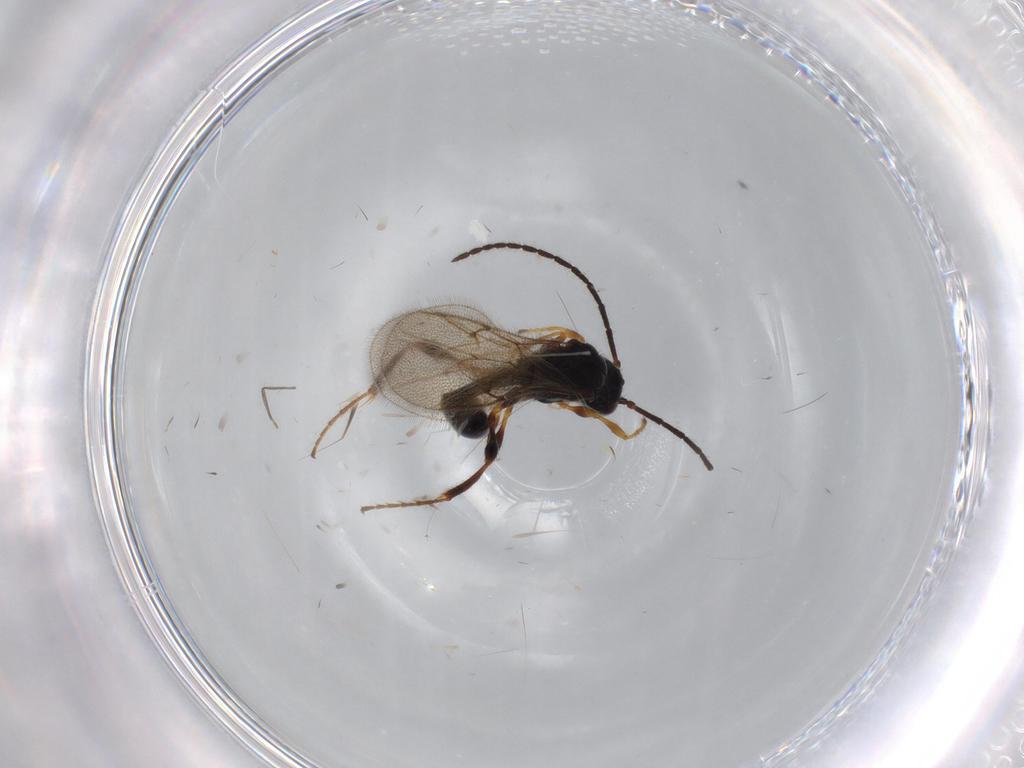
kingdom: Animalia
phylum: Arthropoda
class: Insecta
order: Hymenoptera
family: Diapriidae
